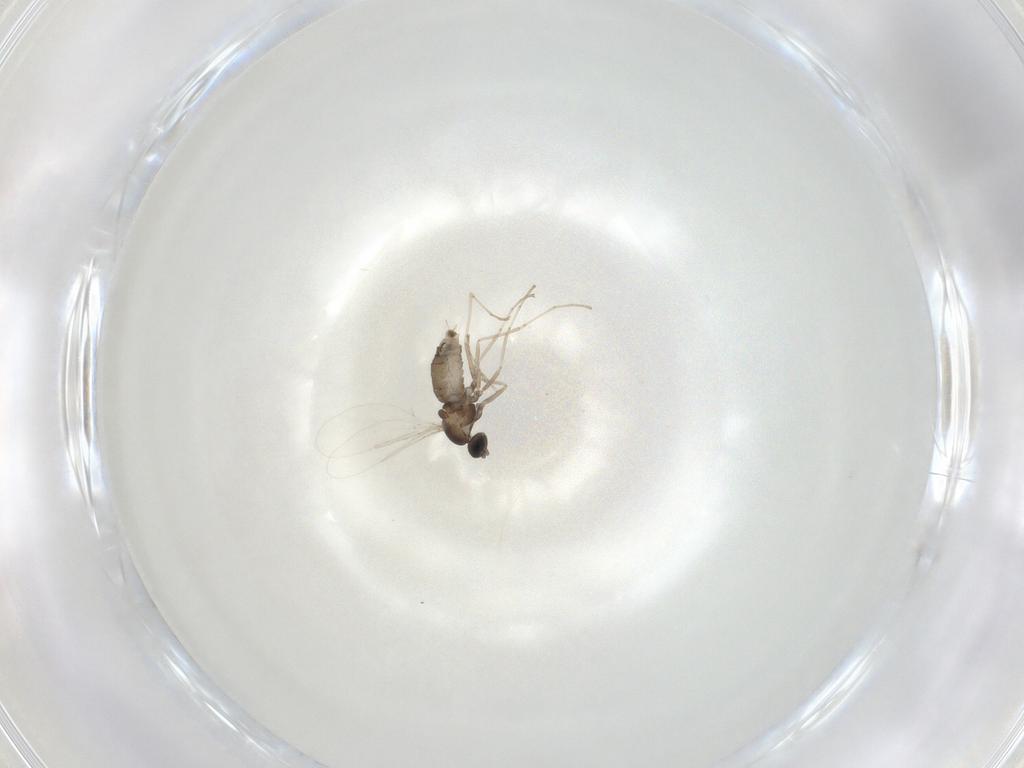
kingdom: Animalia
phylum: Arthropoda
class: Insecta
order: Diptera
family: Cecidomyiidae
